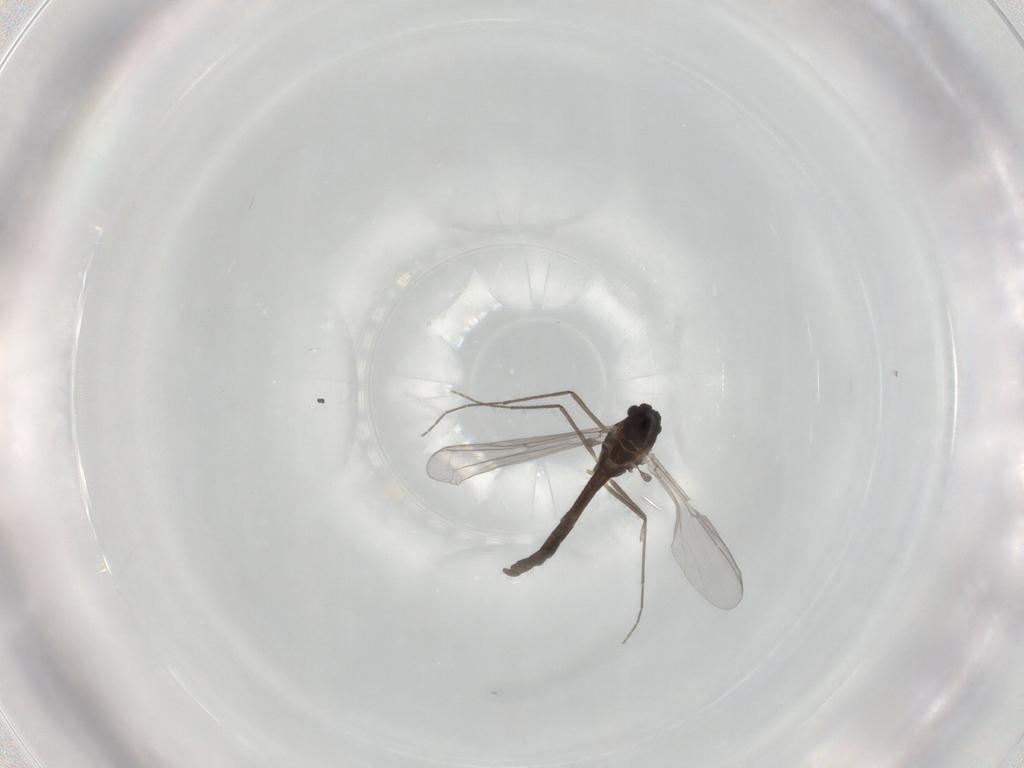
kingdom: Animalia
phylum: Arthropoda
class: Insecta
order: Diptera
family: Chironomidae
